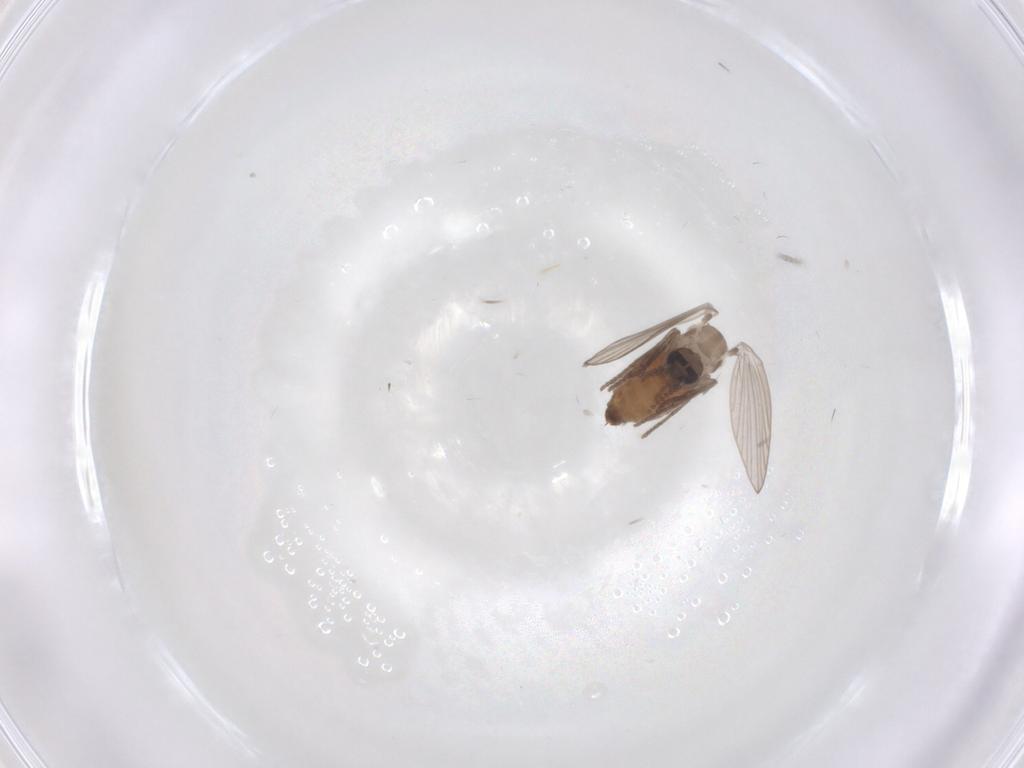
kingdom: Animalia
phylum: Arthropoda
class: Insecta
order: Diptera
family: Psychodidae
